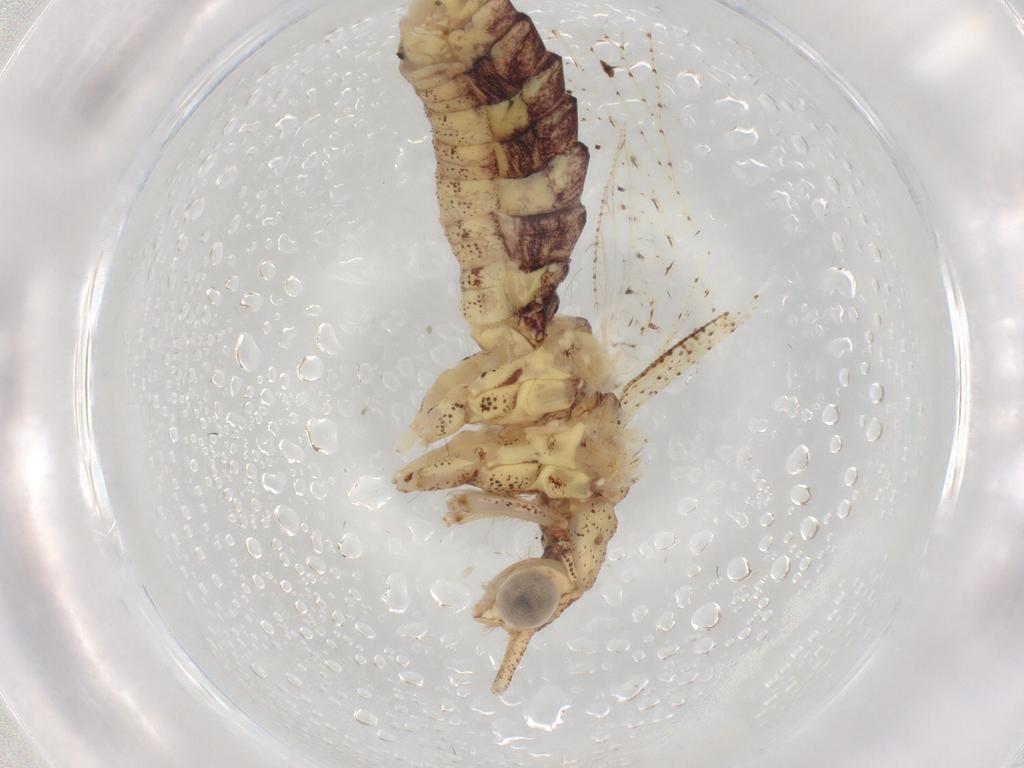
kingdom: Animalia
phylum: Arthropoda
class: Insecta
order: Neuroptera
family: Berothidae
